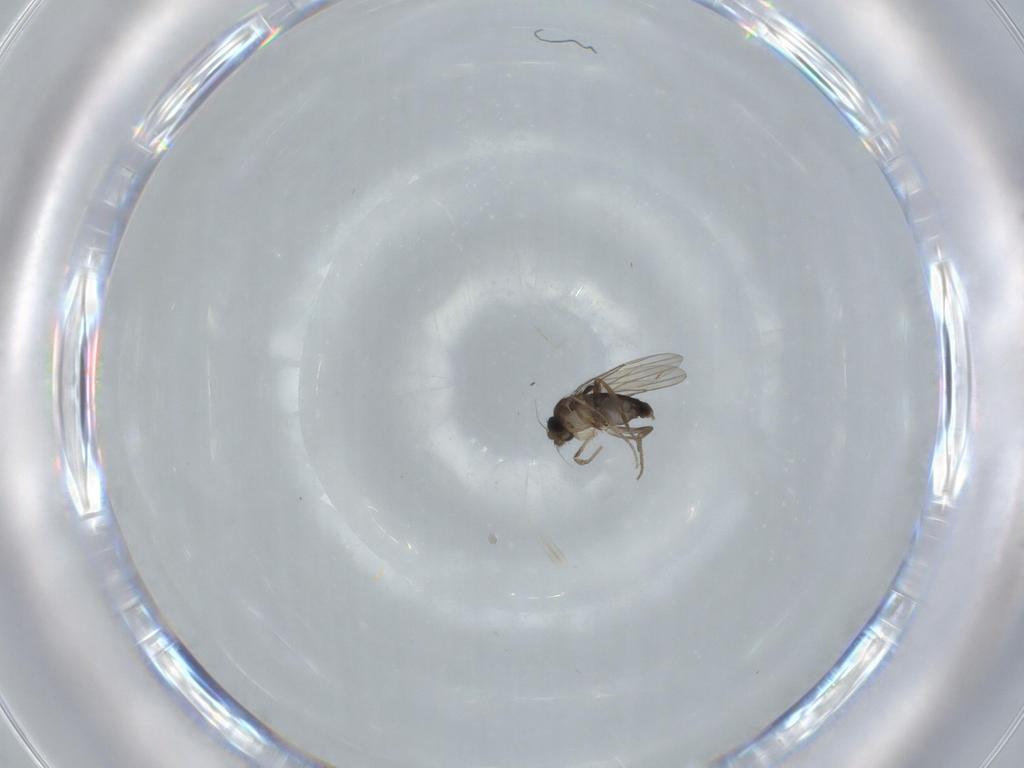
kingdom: Animalia
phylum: Arthropoda
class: Insecta
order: Diptera
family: Phoridae
